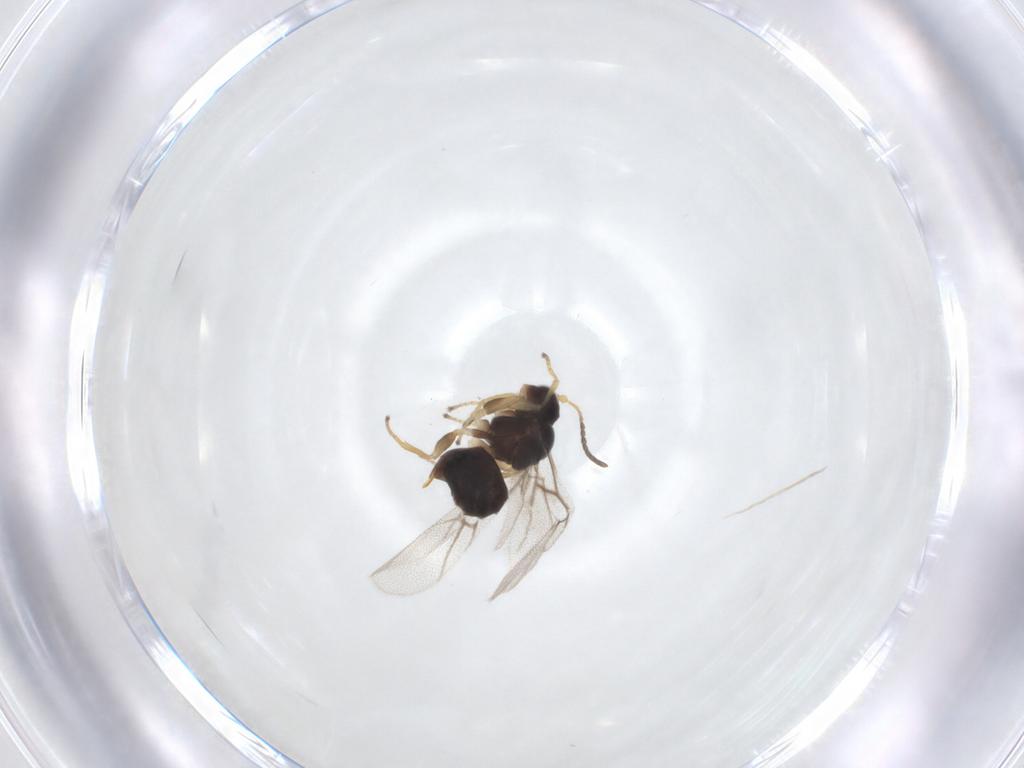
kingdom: Animalia
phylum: Arthropoda
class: Insecta
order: Hymenoptera
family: Cynipidae
